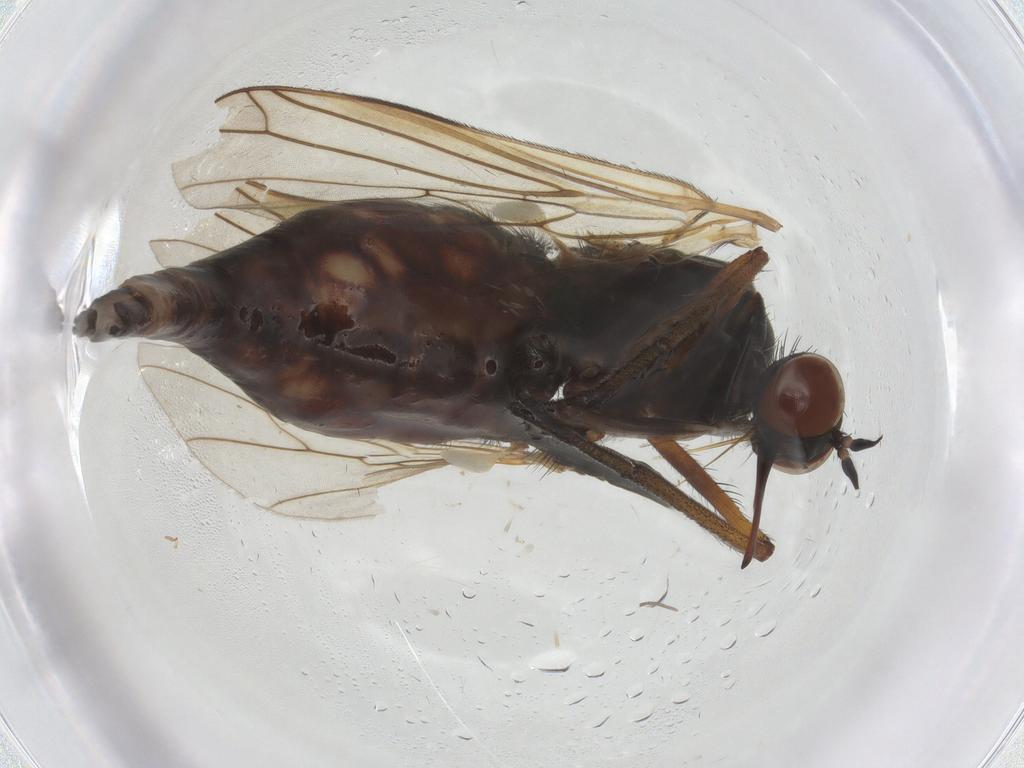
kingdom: Animalia
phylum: Arthropoda
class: Insecta
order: Diptera
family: Empididae
